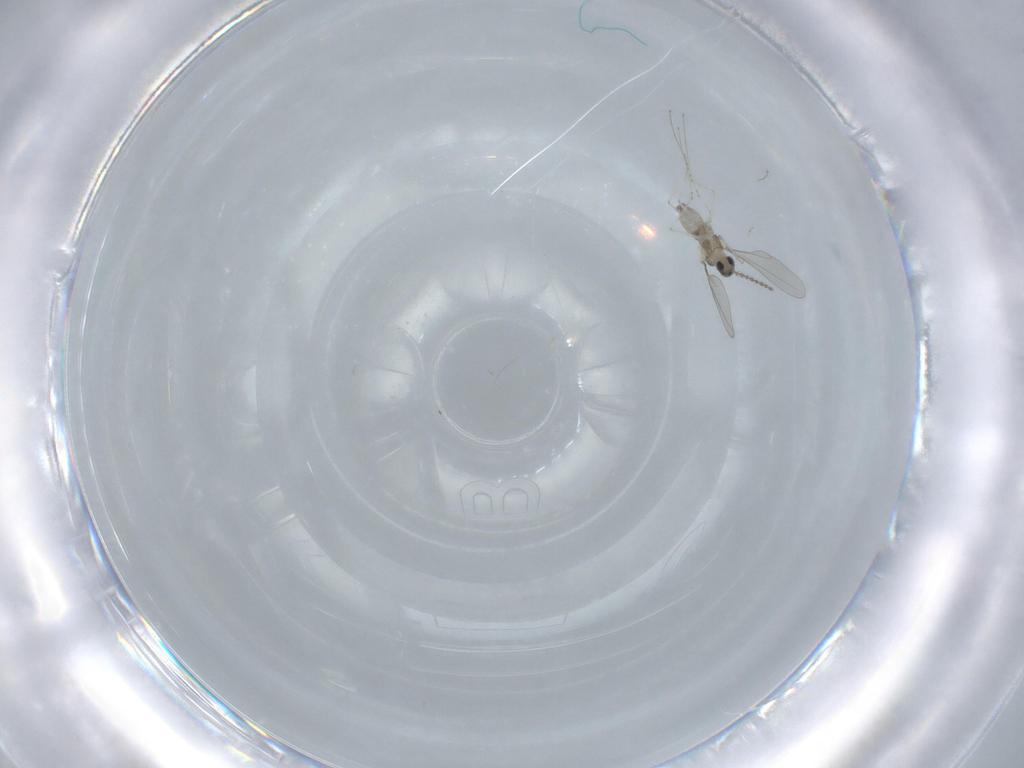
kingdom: Animalia
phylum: Arthropoda
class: Insecta
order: Diptera
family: Cecidomyiidae
